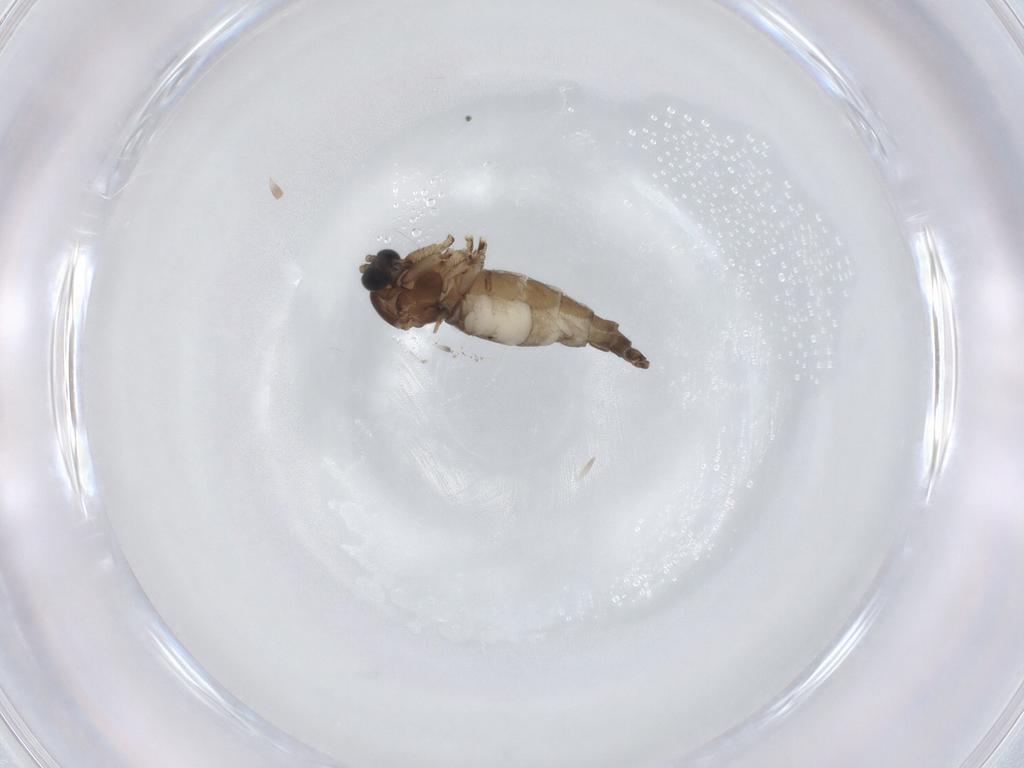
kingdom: Animalia
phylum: Arthropoda
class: Insecta
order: Diptera
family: Sciaridae
